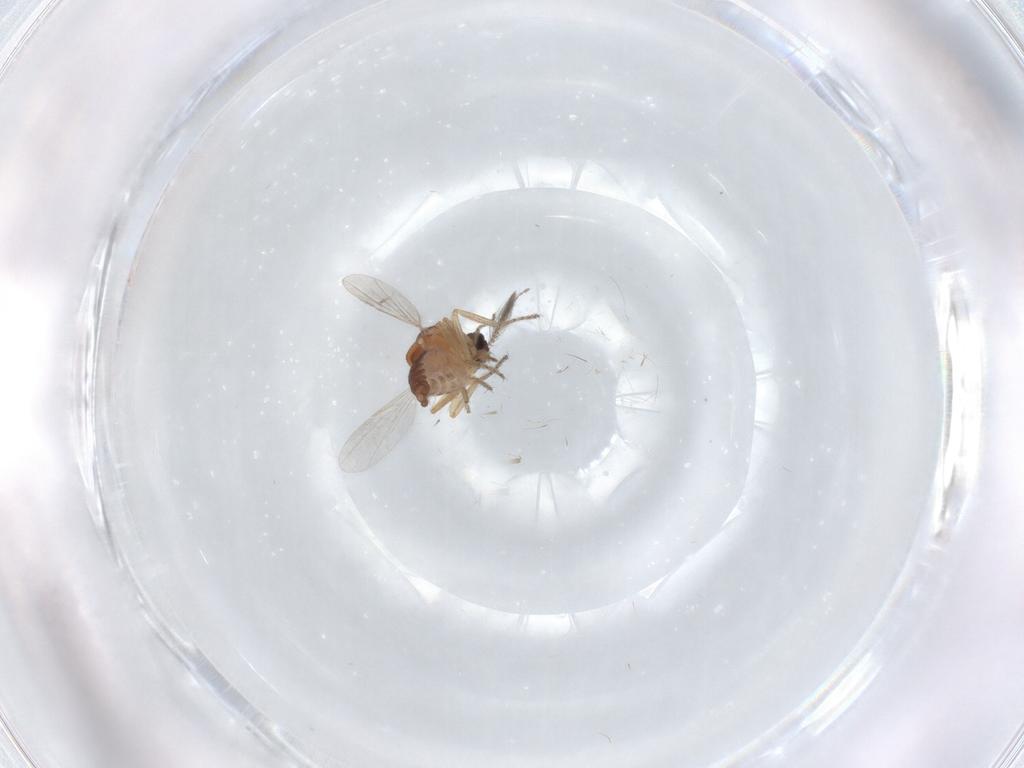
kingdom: Animalia
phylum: Arthropoda
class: Insecta
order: Diptera
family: Ceratopogonidae
